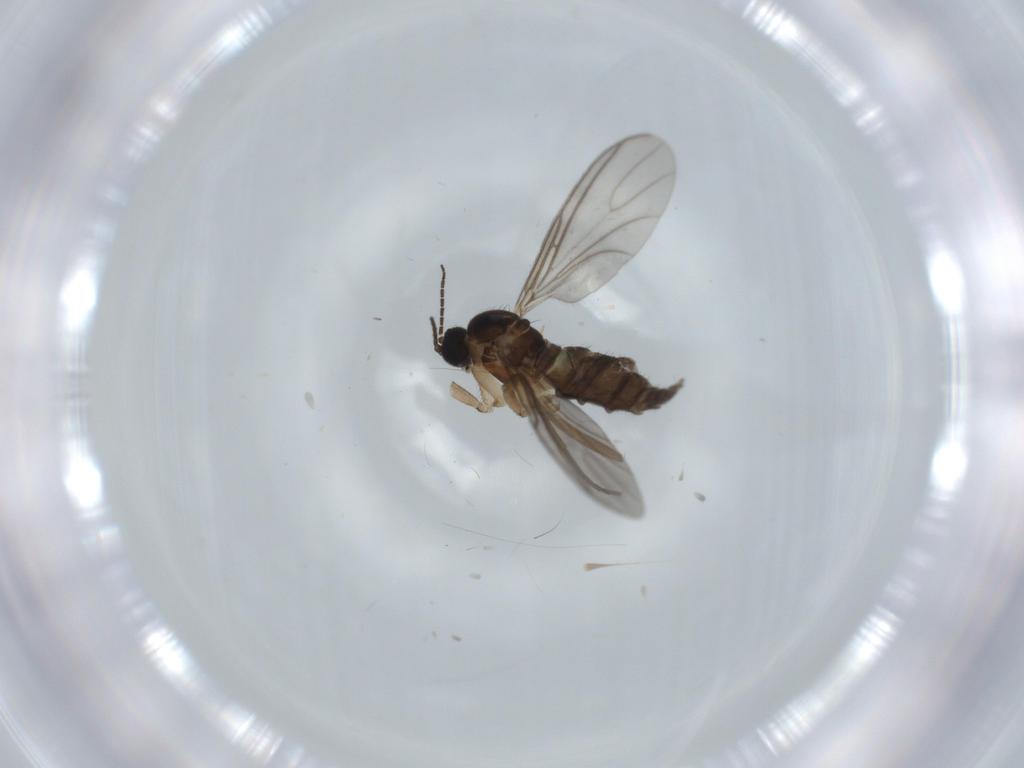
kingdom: Animalia
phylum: Arthropoda
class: Insecta
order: Diptera
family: Sciaridae
